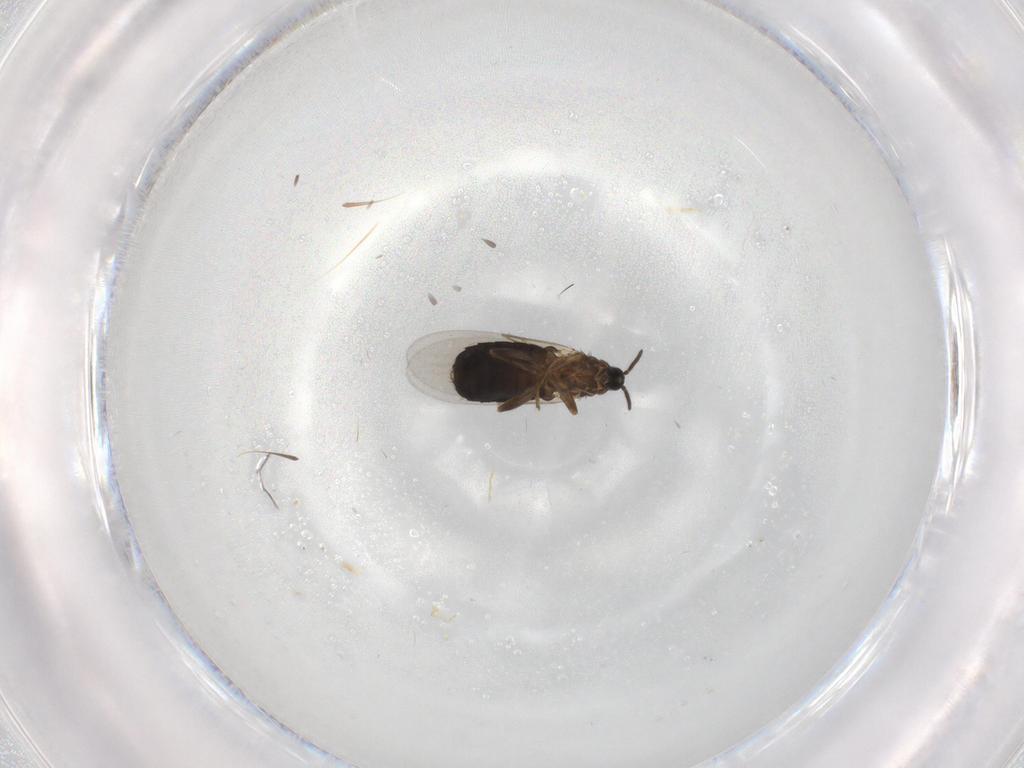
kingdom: Animalia
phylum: Arthropoda
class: Insecta
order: Diptera
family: Scatopsidae
